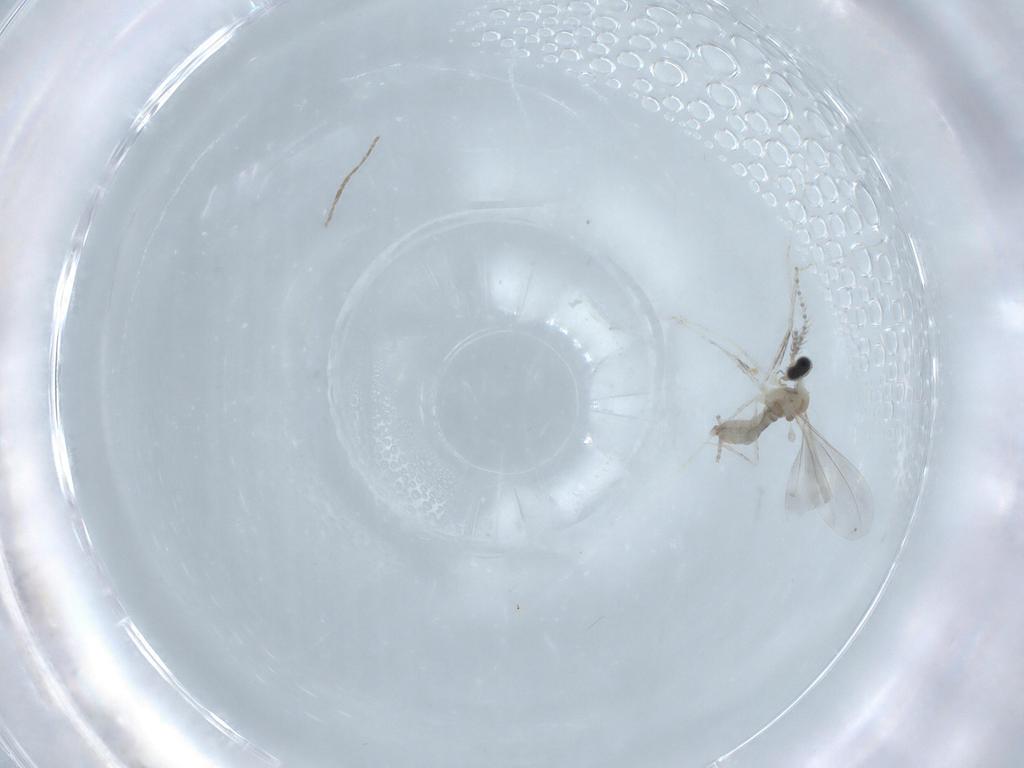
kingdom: Animalia
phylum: Arthropoda
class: Insecta
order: Diptera
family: Cecidomyiidae
